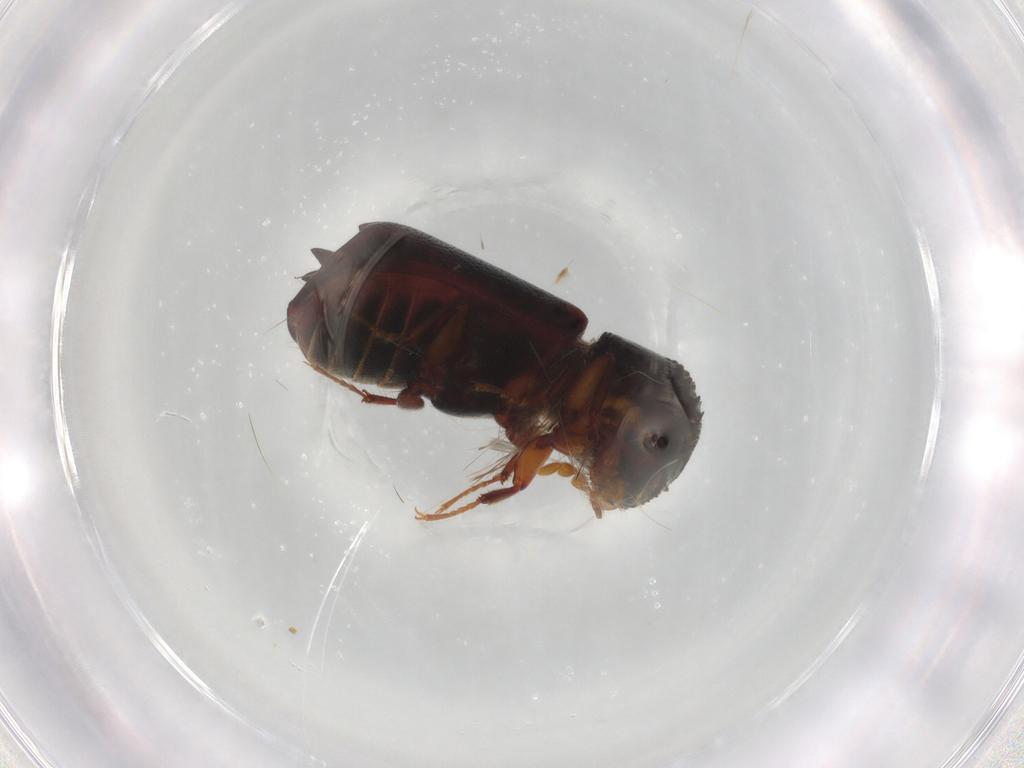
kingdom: Animalia
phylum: Arthropoda
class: Insecta
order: Coleoptera
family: Bostrichidae
